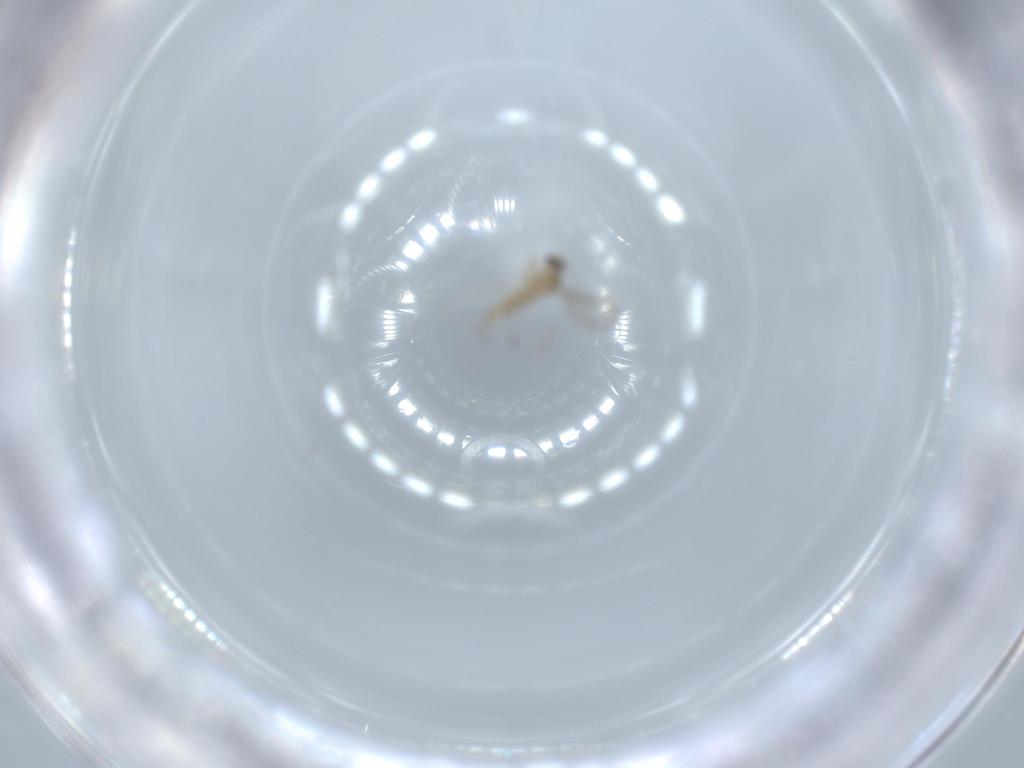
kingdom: Animalia
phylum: Arthropoda
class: Insecta
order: Diptera
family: Cecidomyiidae
